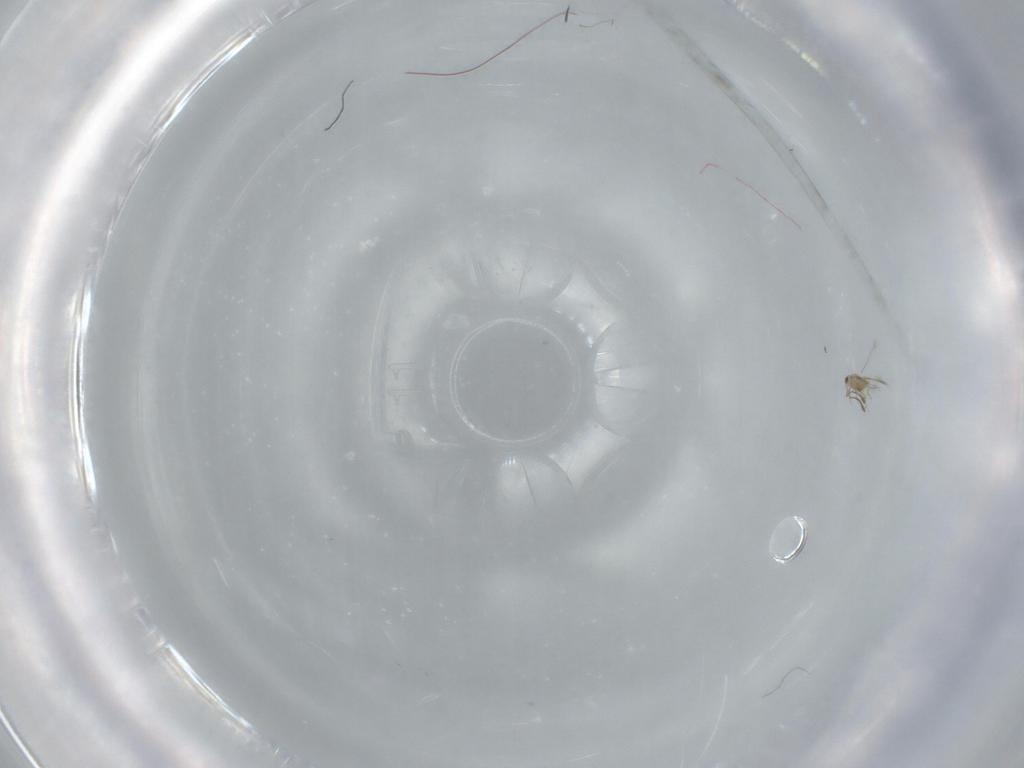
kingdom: Animalia
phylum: Arthropoda
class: Insecta
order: Hymenoptera
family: Mymaridae
